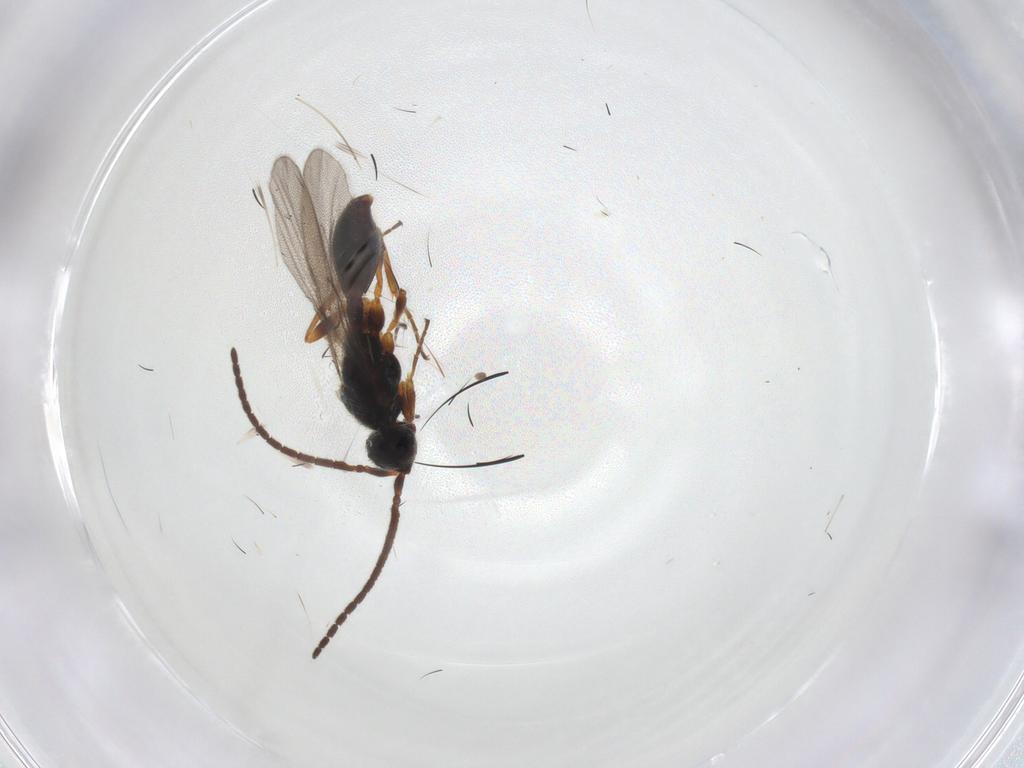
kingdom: Animalia
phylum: Arthropoda
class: Insecta
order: Hymenoptera
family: Diapriidae
